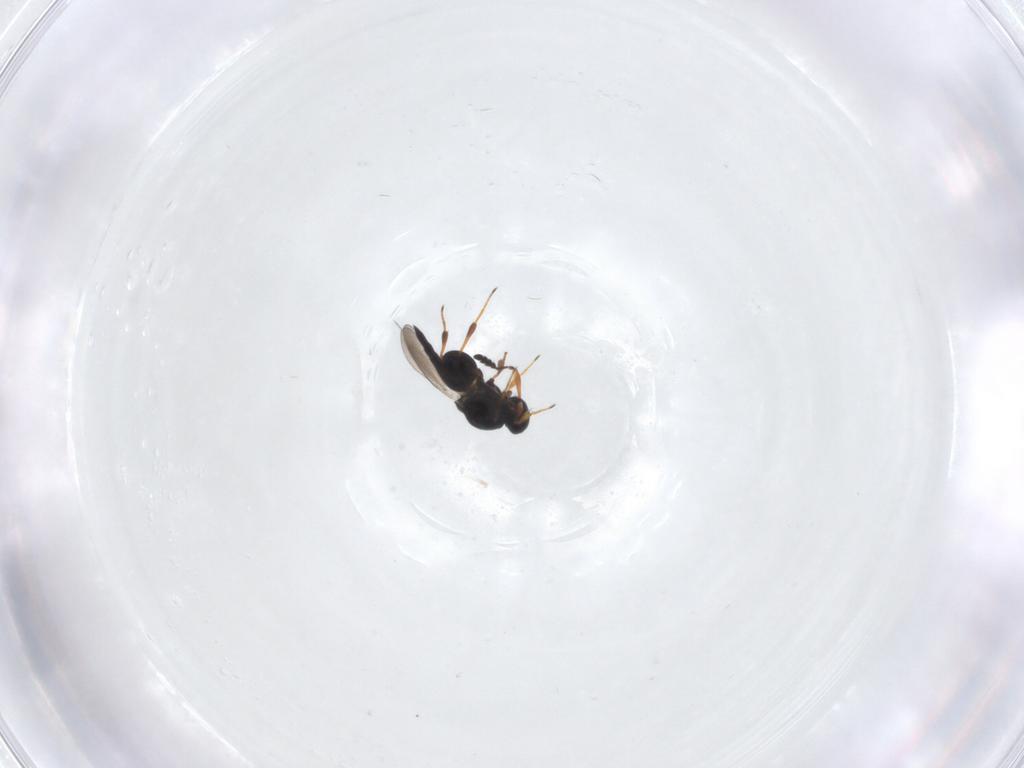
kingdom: Animalia
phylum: Arthropoda
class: Insecta
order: Hymenoptera
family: Platygastridae
